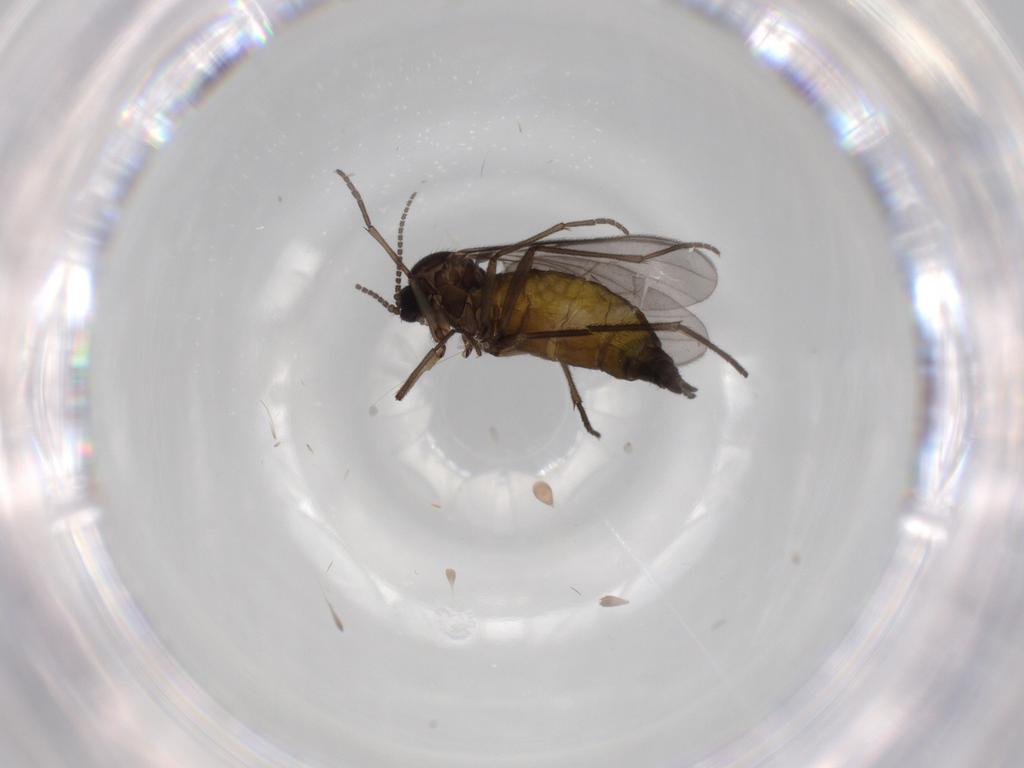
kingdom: Animalia
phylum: Arthropoda
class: Insecta
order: Diptera
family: Sciaridae
